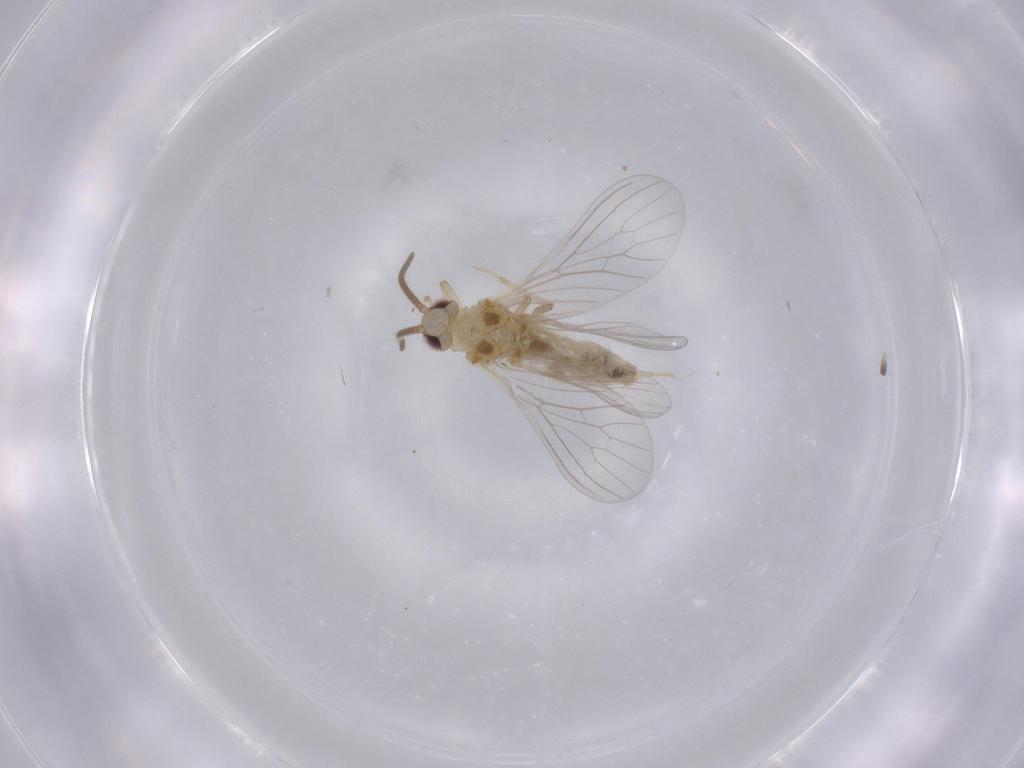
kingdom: Animalia
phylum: Arthropoda
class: Insecta
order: Neuroptera
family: Coniopterygidae
